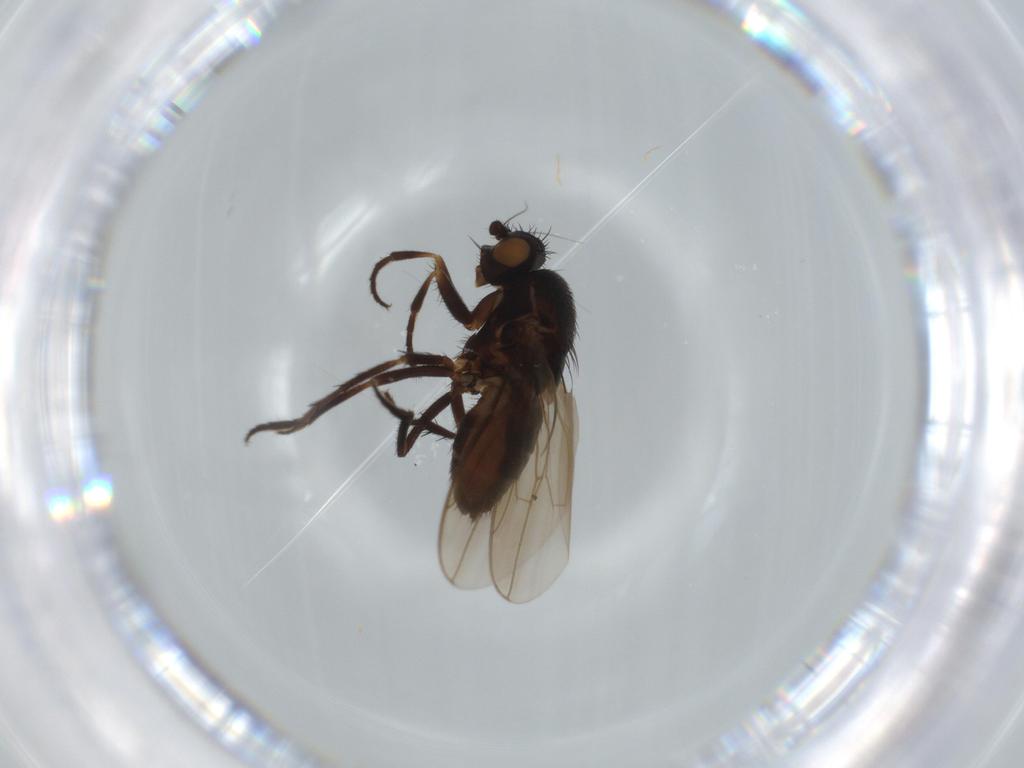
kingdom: Animalia
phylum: Arthropoda
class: Insecta
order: Diptera
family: Sphaeroceridae
